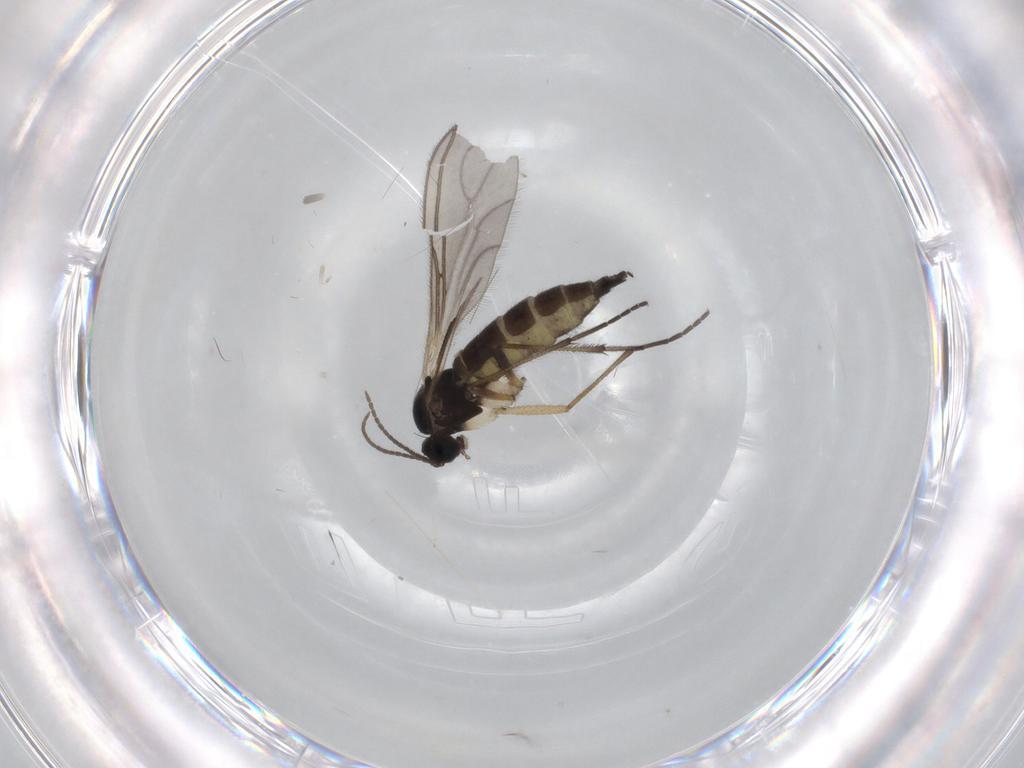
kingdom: Animalia
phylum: Arthropoda
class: Insecta
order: Diptera
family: Sciaridae
